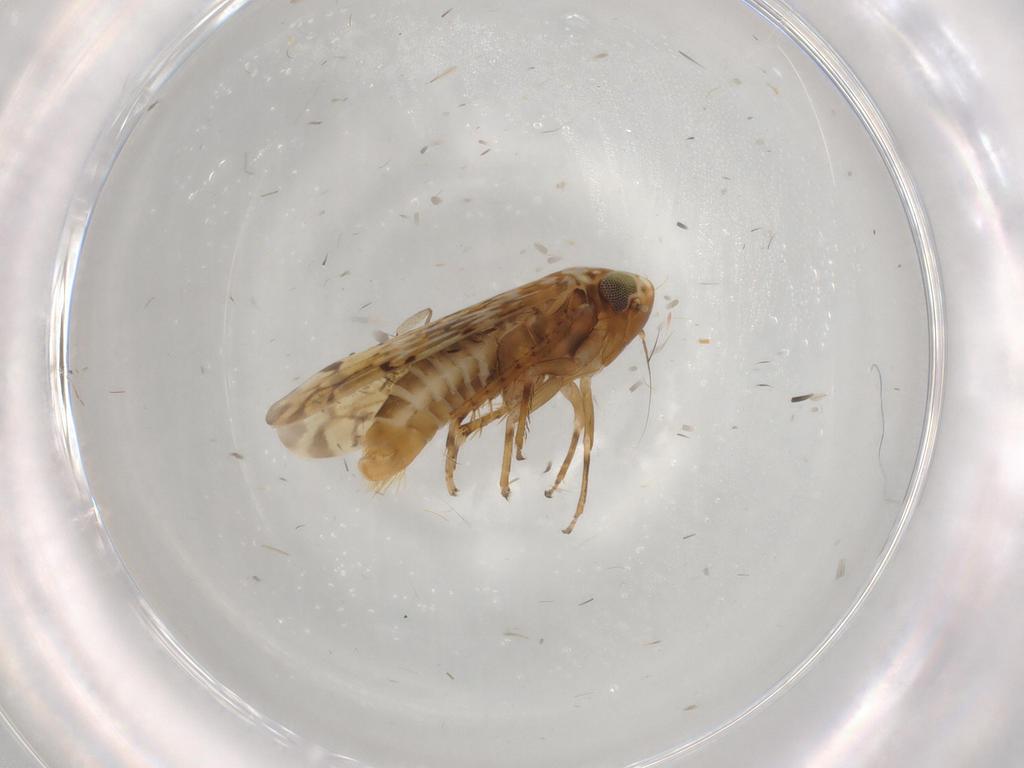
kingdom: Animalia
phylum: Arthropoda
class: Insecta
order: Hemiptera
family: Cicadellidae
